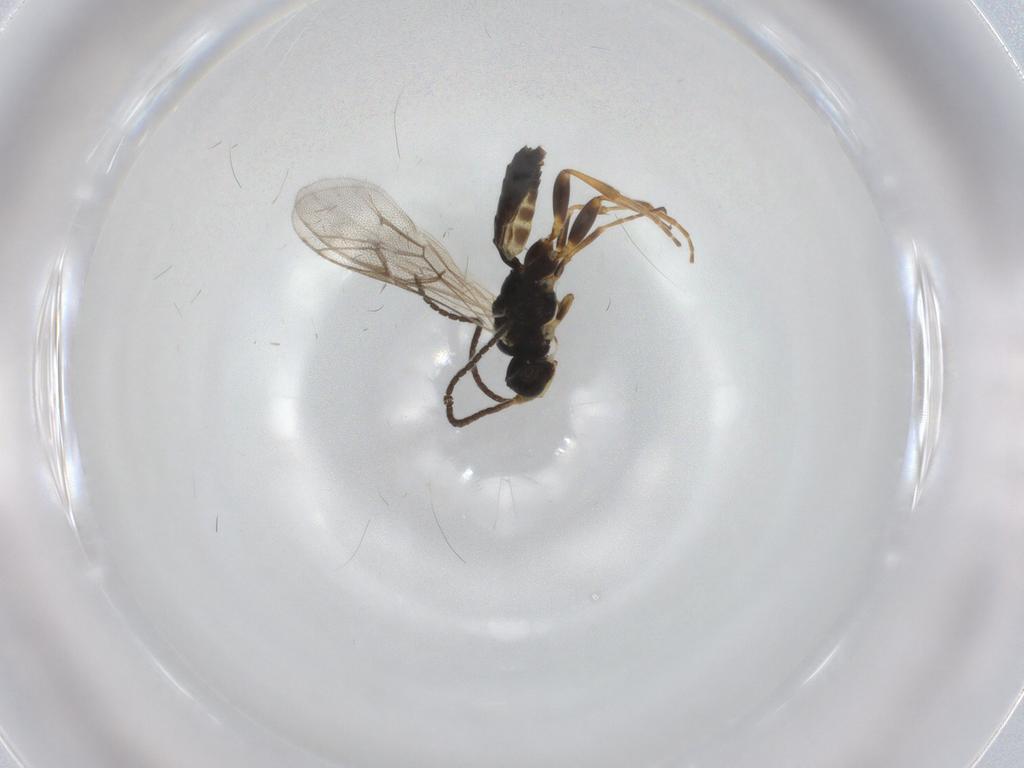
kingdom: Animalia
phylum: Arthropoda
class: Insecta
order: Hymenoptera
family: Ichneumonidae
